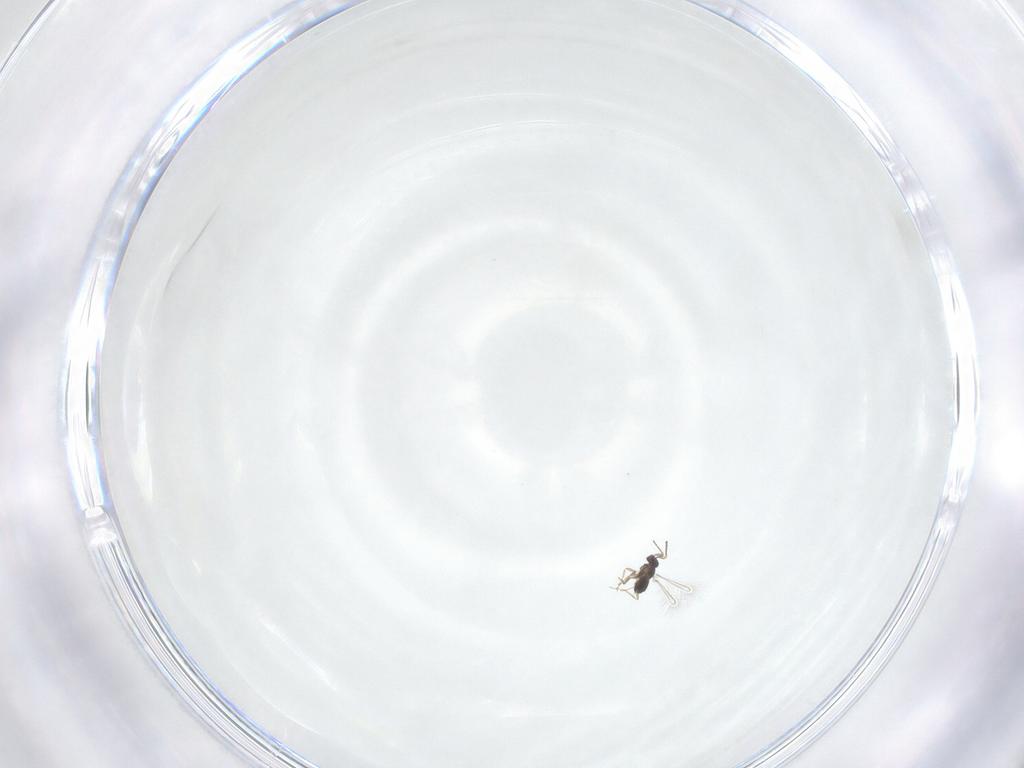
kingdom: Animalia
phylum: Arthropoda
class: Insecta
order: Hymenoptera
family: Mymaridae
